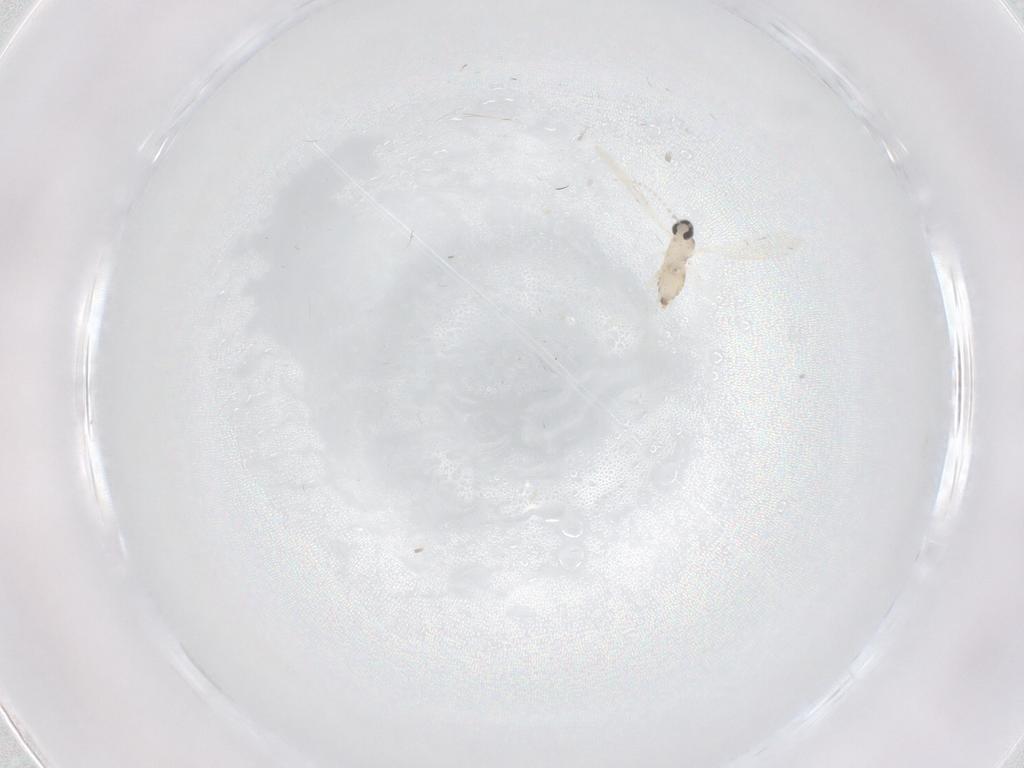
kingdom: Animalia
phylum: Arthropoda
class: Insecta
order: Diptera
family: Cecidomyiidae
